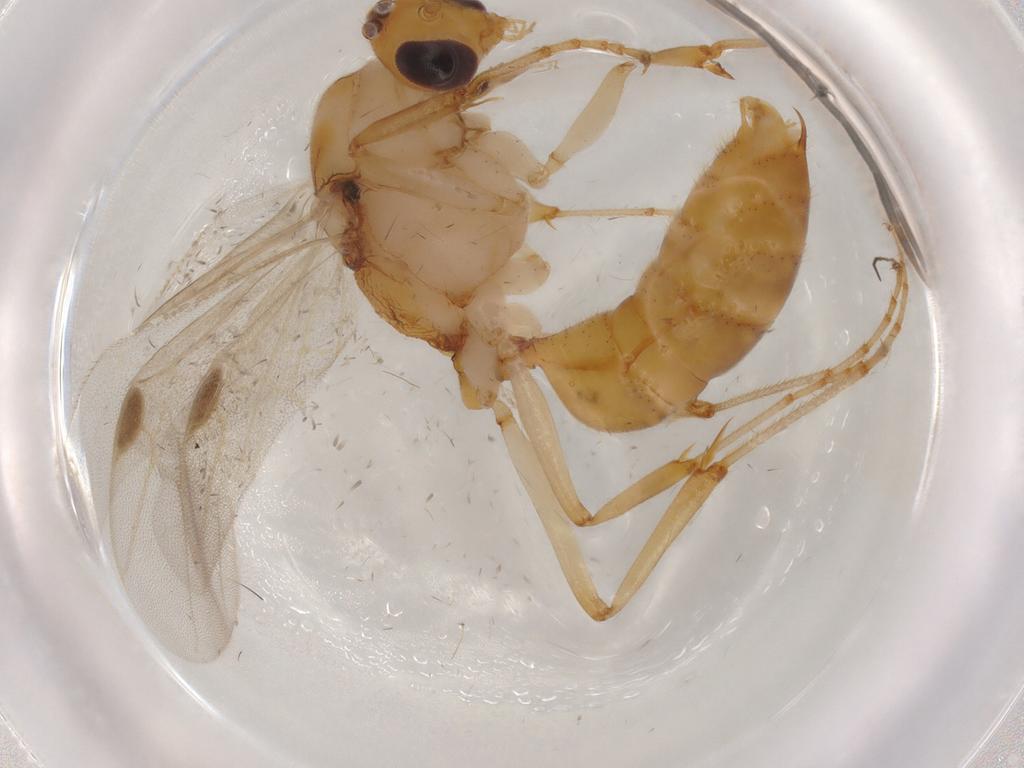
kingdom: Animalia
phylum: Arthropoda
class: Insecta
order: Hymenoptera
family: Formicidae
